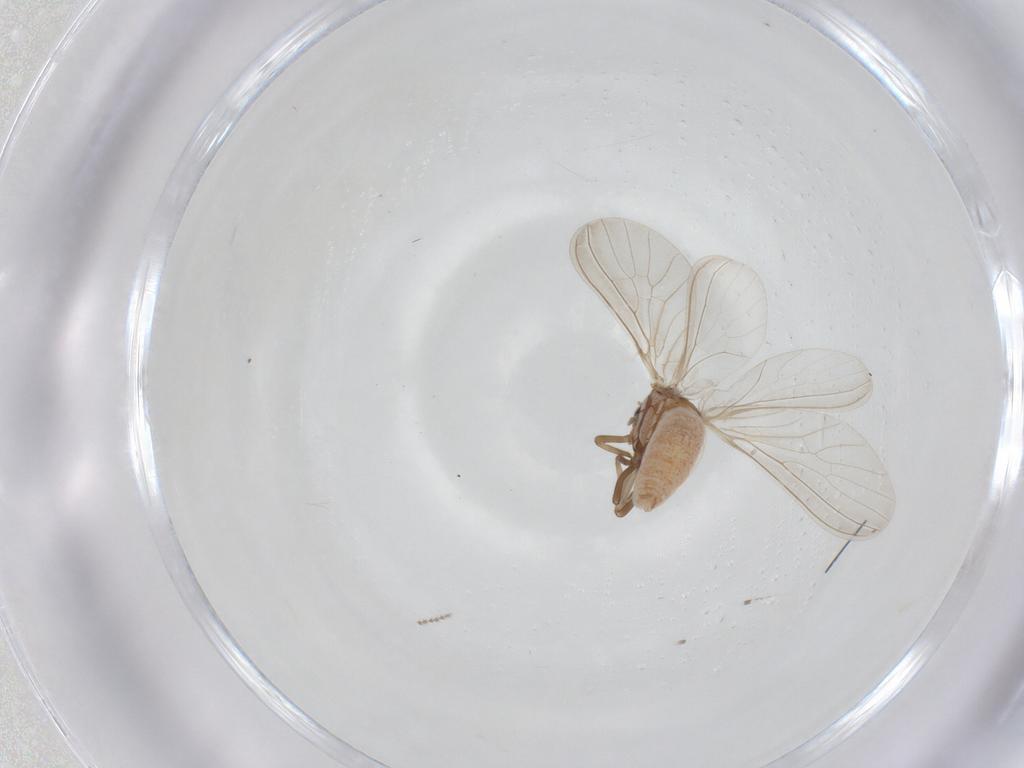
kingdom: Animalia
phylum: Arthropoda
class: Insecta
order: Neuroptera
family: Coniopterygidae
